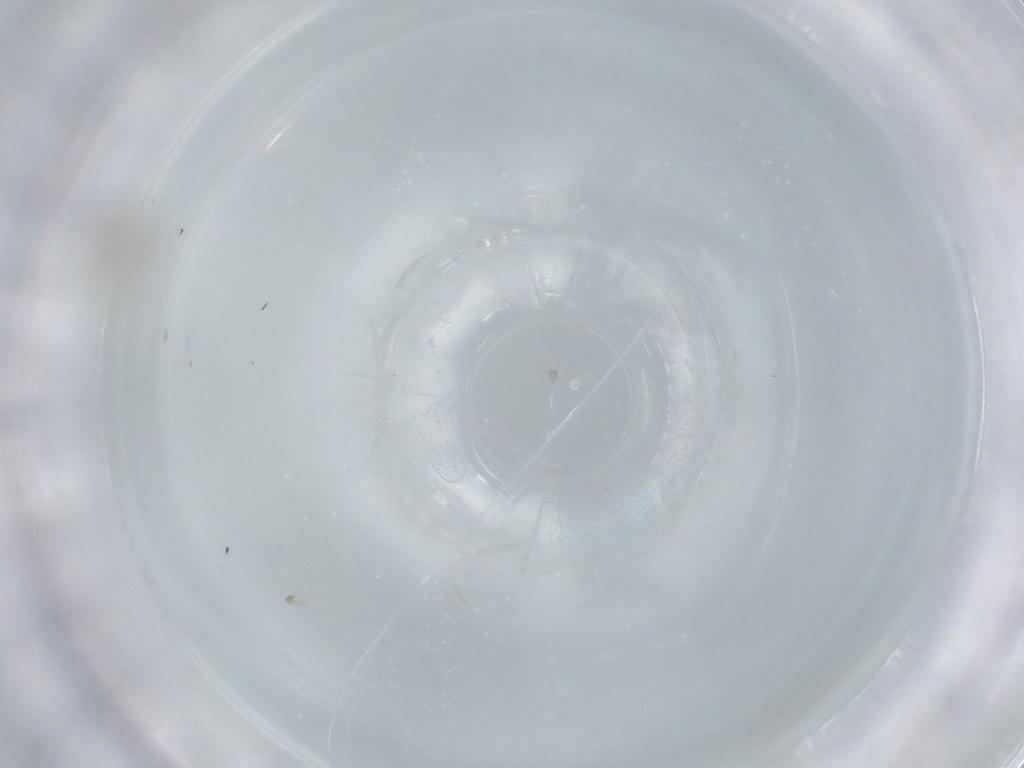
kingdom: Animalia
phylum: Arthropoda
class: Insecta
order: Diptera
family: Cecidomyiidae
